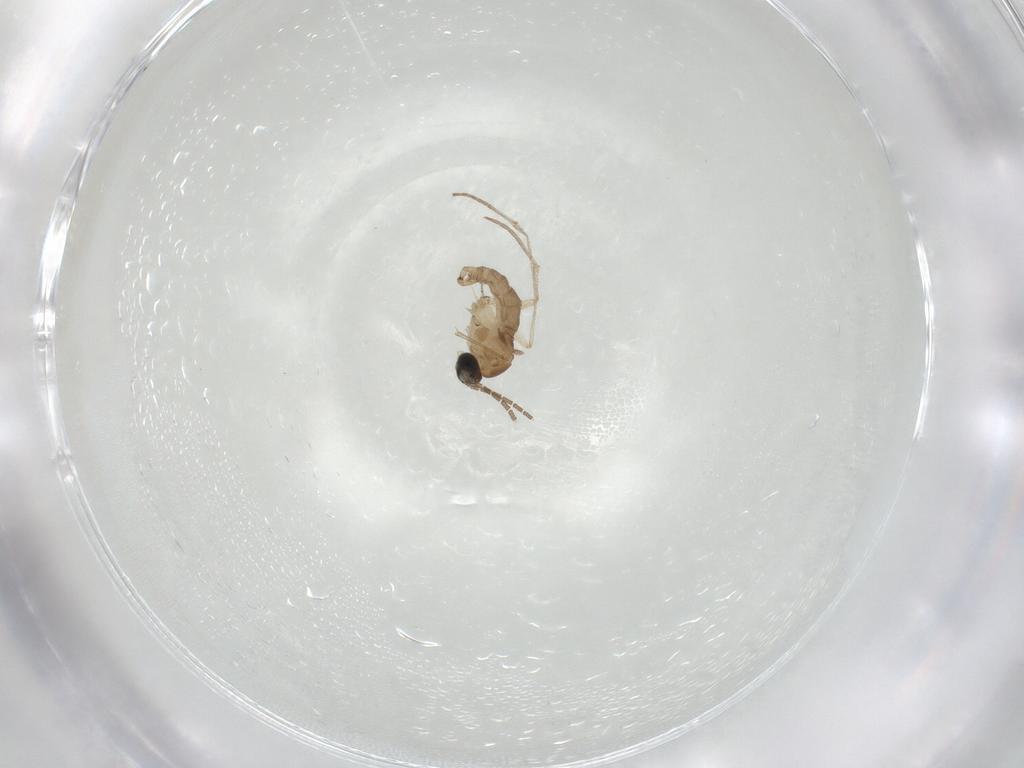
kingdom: Animalia
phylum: Arthropoda
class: Insecta
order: Diptera
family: Sciaridae
